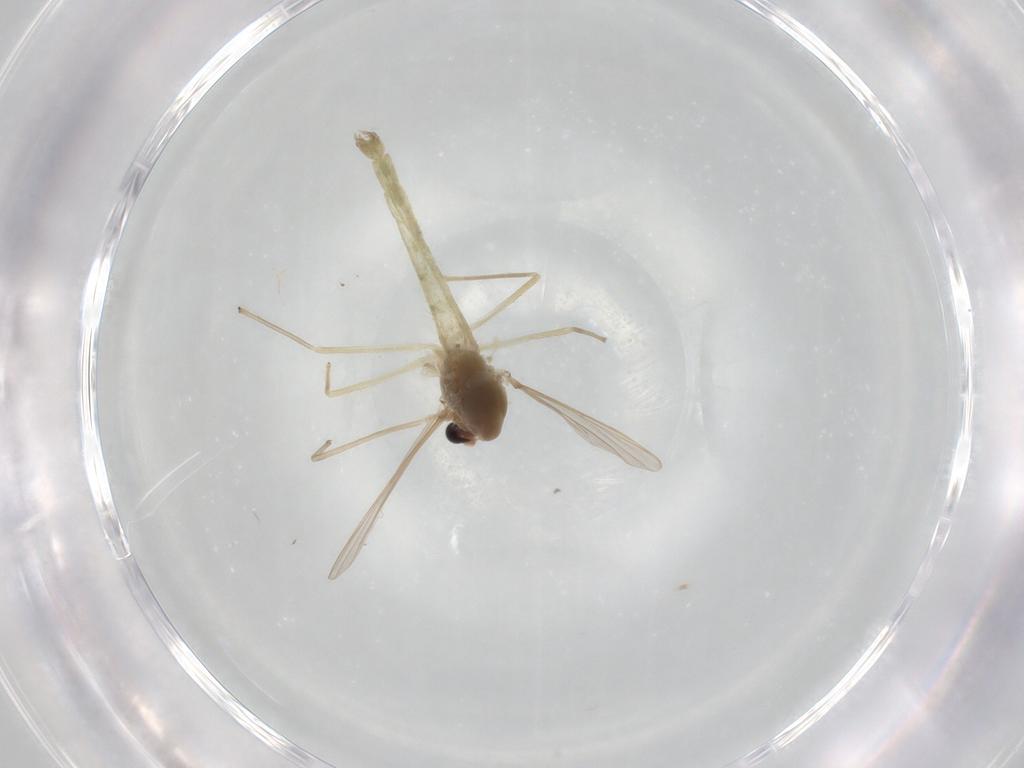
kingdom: Animalia
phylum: Arthropoda
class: Insecta
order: Diptera
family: Chironomidae
